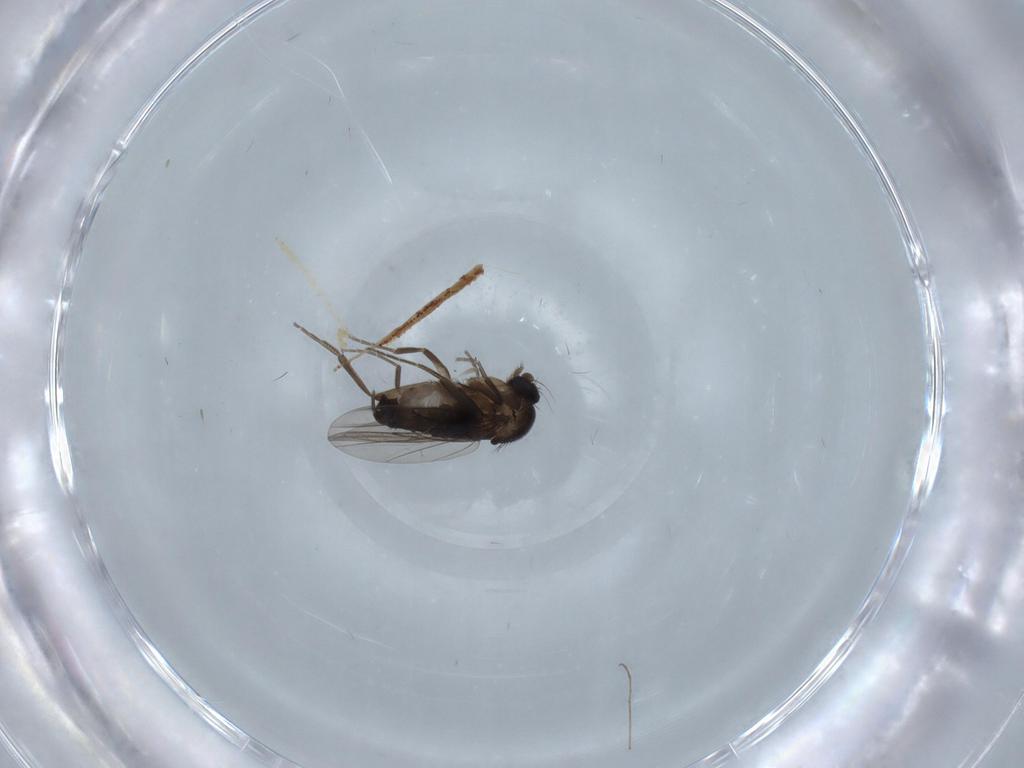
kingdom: Animalia
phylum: Arthropoda
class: Insecta
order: Diptera
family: Phoridae
